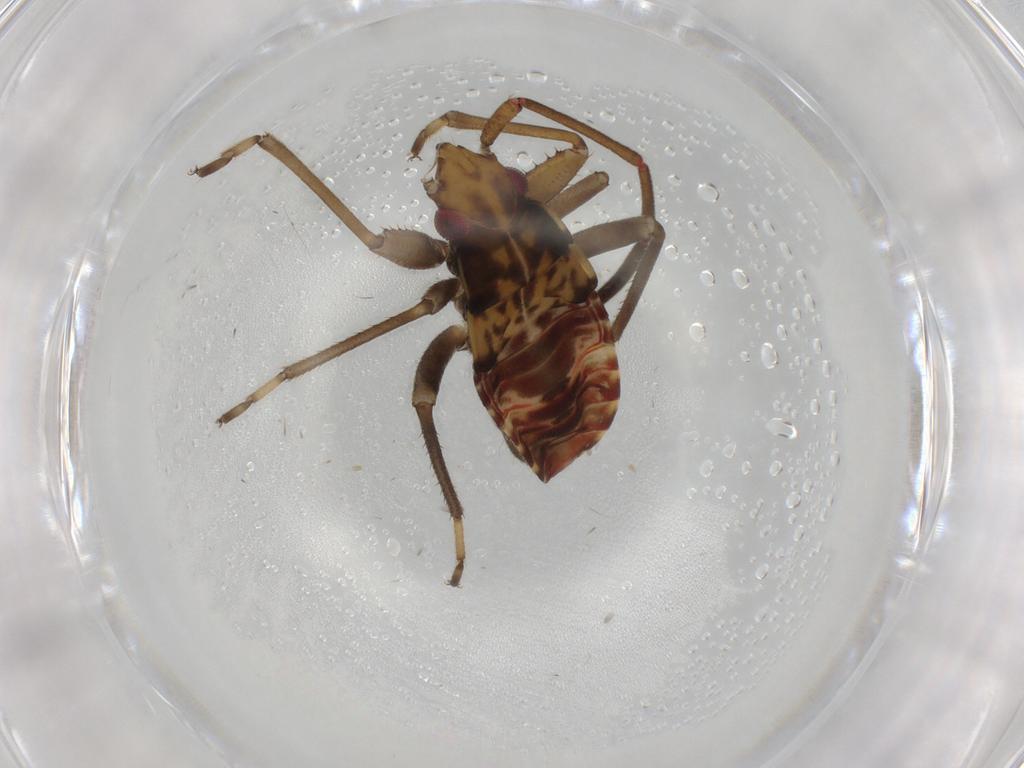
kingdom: Animalia
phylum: Arthropoda
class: Insecta
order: Hemiptera
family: Rhyparochromidae
